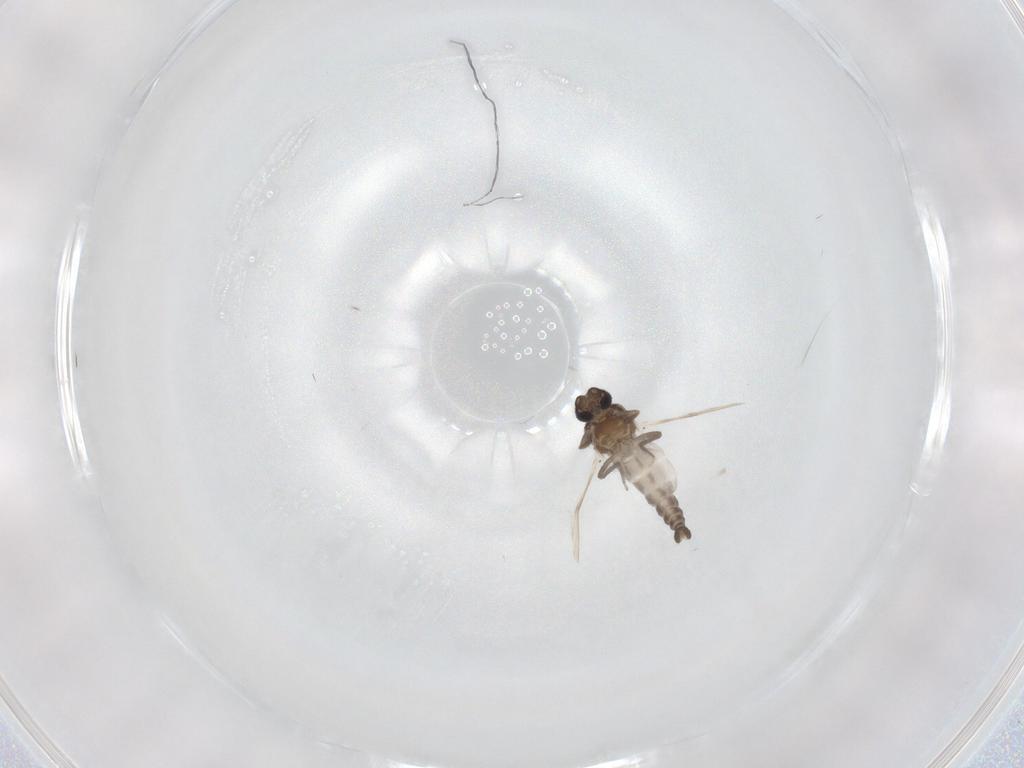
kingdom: Animalia
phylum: Arthropoda
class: Insecta
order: Diptera
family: Ceratopogonidae
